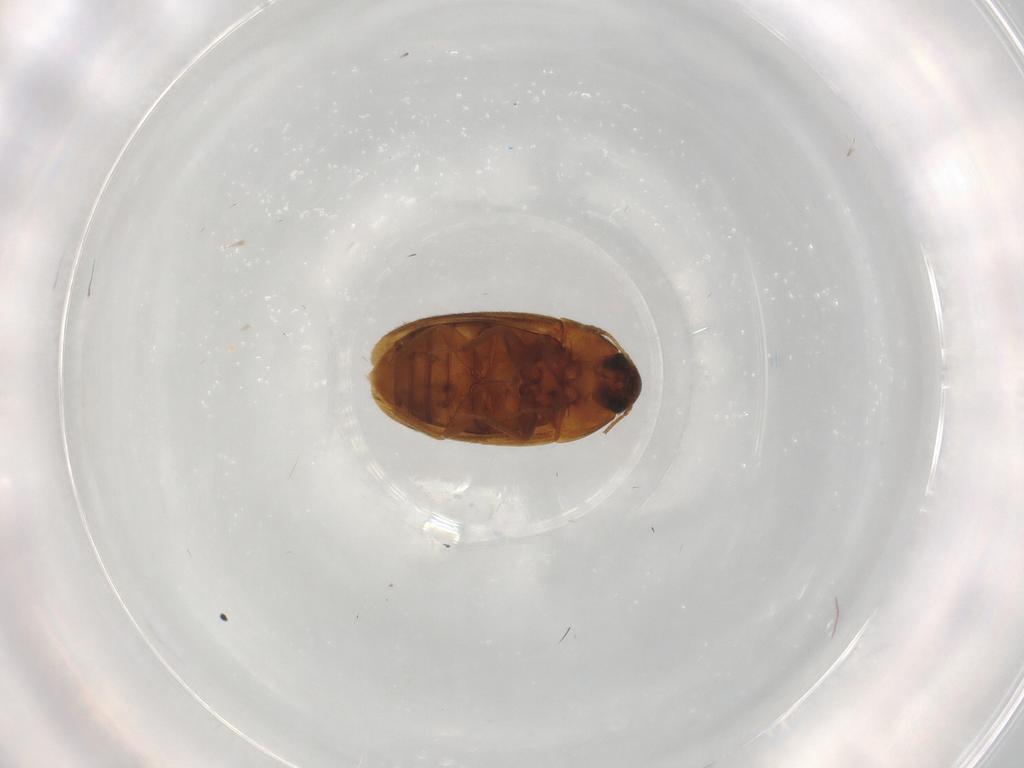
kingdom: Animalia
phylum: Arthropoda
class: Insecta
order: Coleoptera
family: Mycetophagidae
